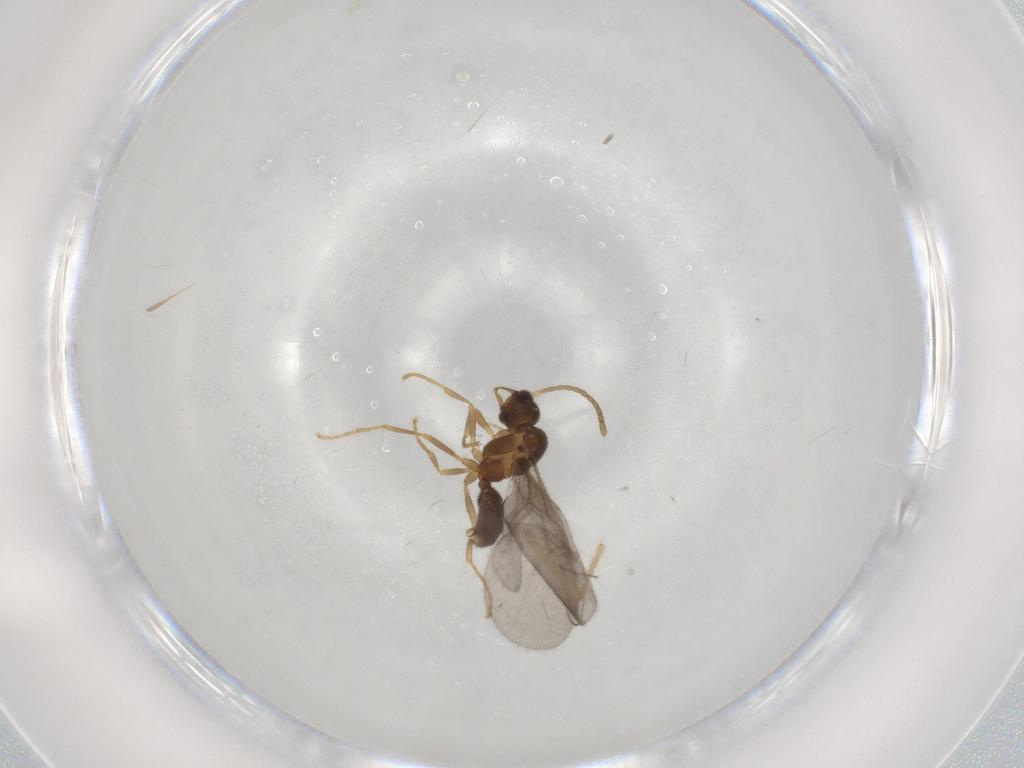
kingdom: Animalia
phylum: Arthropoda
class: Insecta
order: Hymenoptera
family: Formicidae
